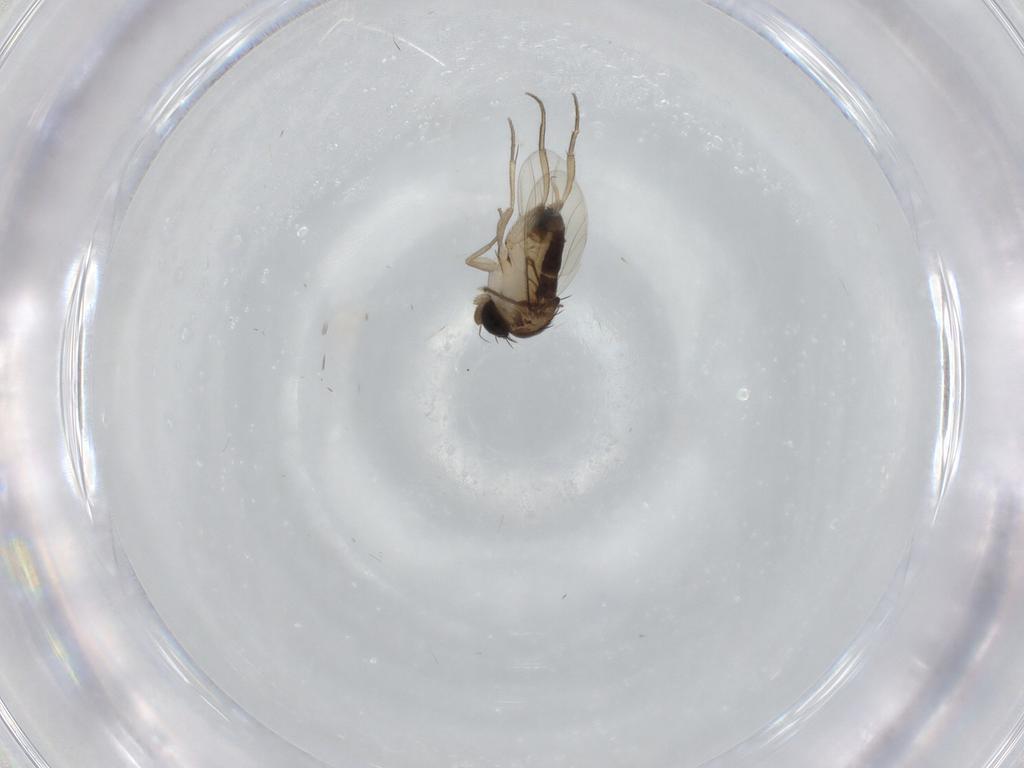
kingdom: Animalia
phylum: Arthropoda
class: Insecta
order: Diptera
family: Phoridae
